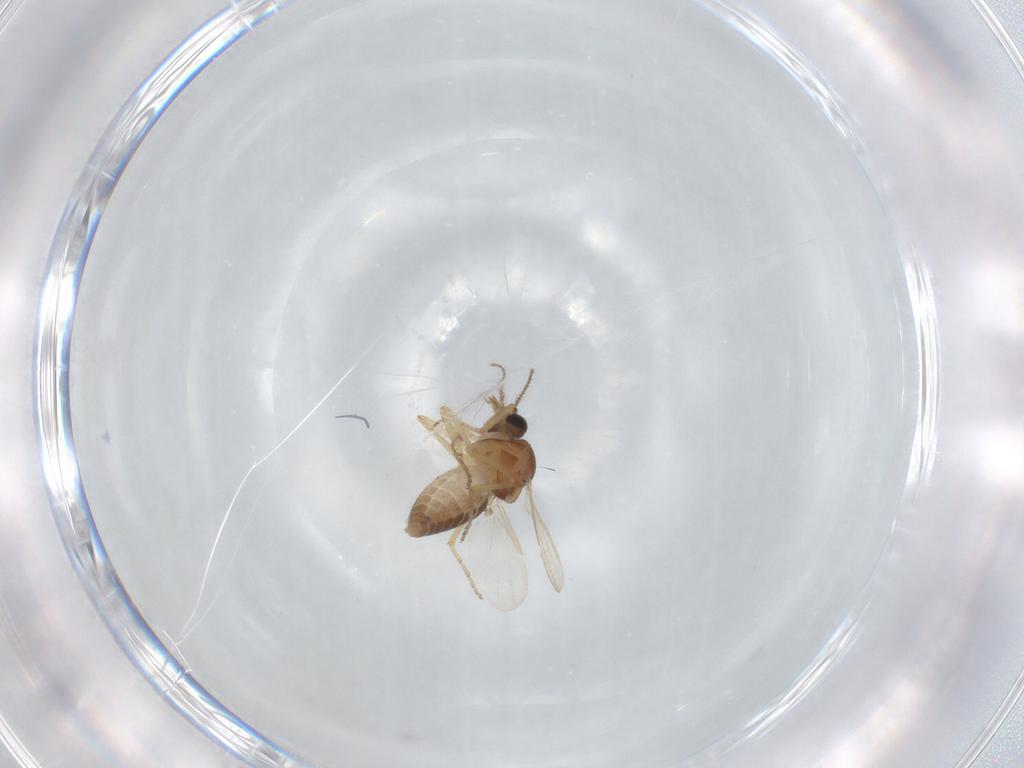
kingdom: Animalia
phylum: Arthropoda
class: Insecta
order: Diptera
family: Ceratopogonidae
